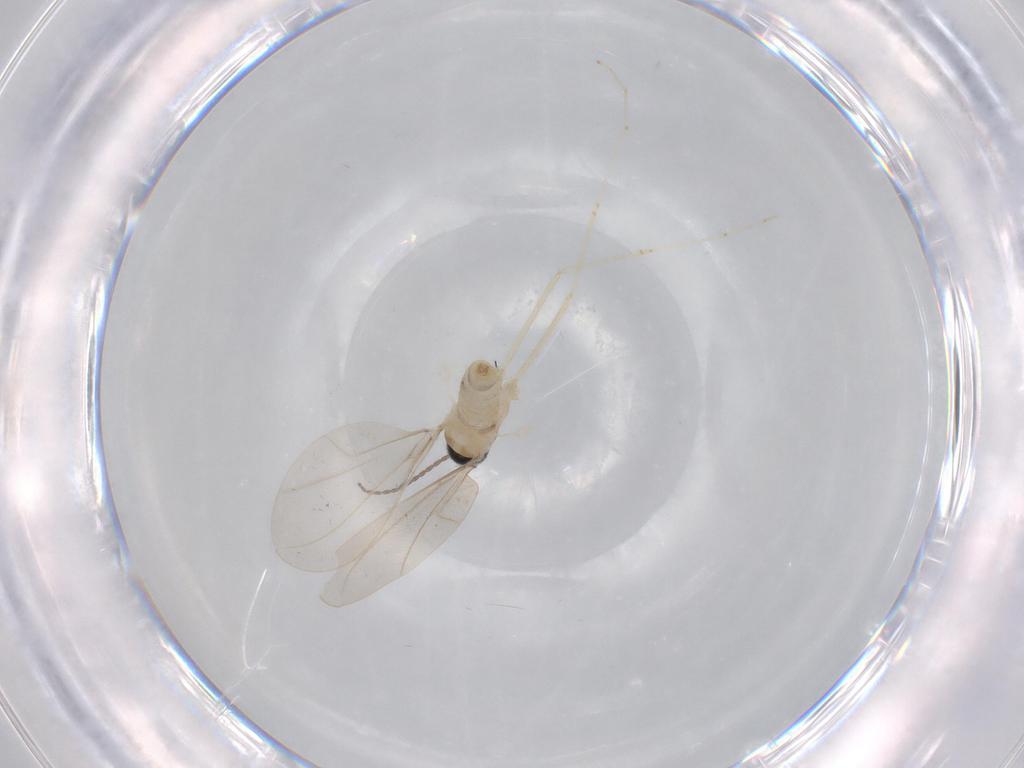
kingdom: Animalia
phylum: Arthropoda
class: Insecta
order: Diptera
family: Cecidomyiidae
